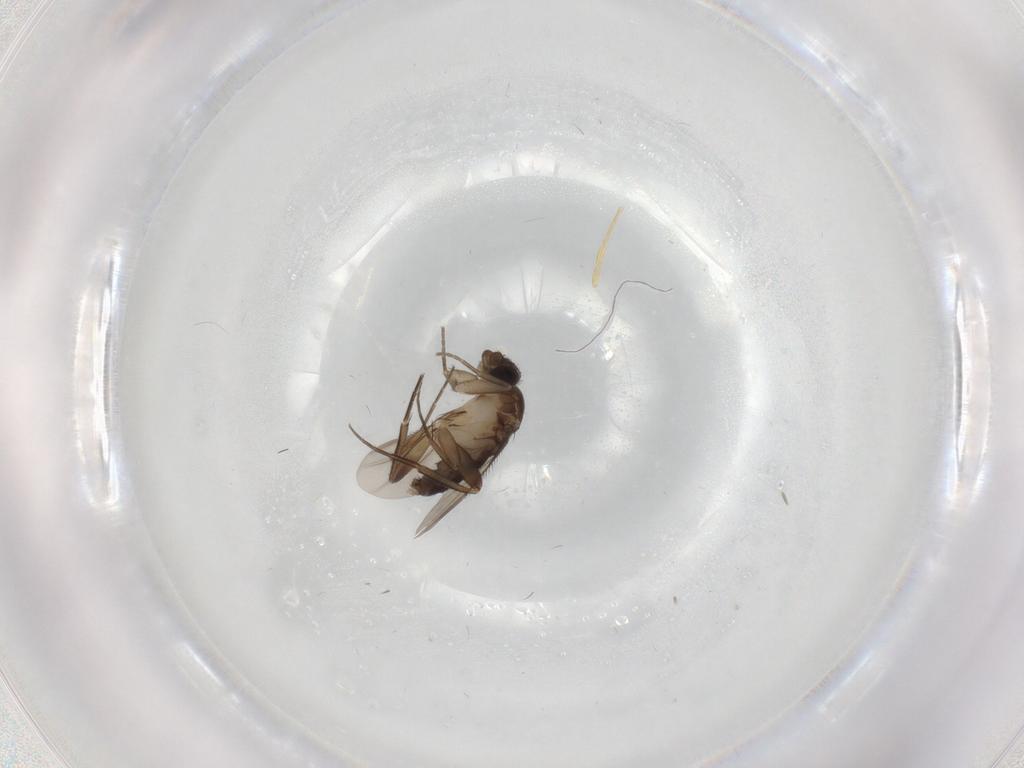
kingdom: Animalia
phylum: Arthropoda
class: Insecta
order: Diptera
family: Phoridae
